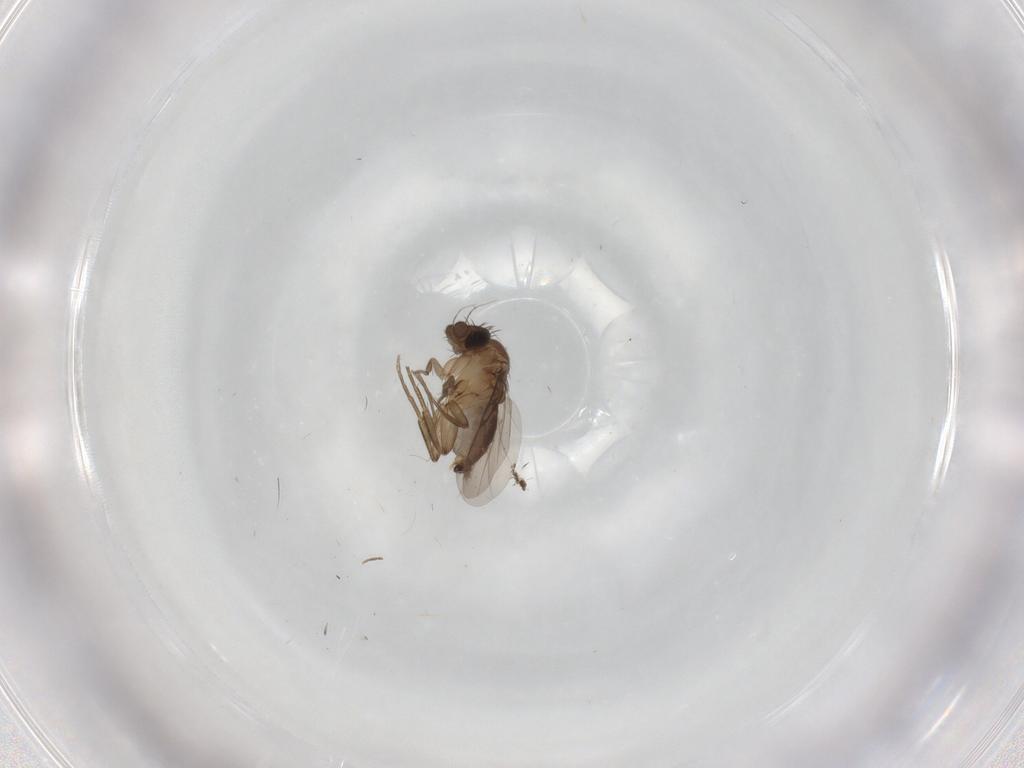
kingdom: Animalia
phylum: Arthropoda
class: Insecta
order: Diptera
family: Phoridae
